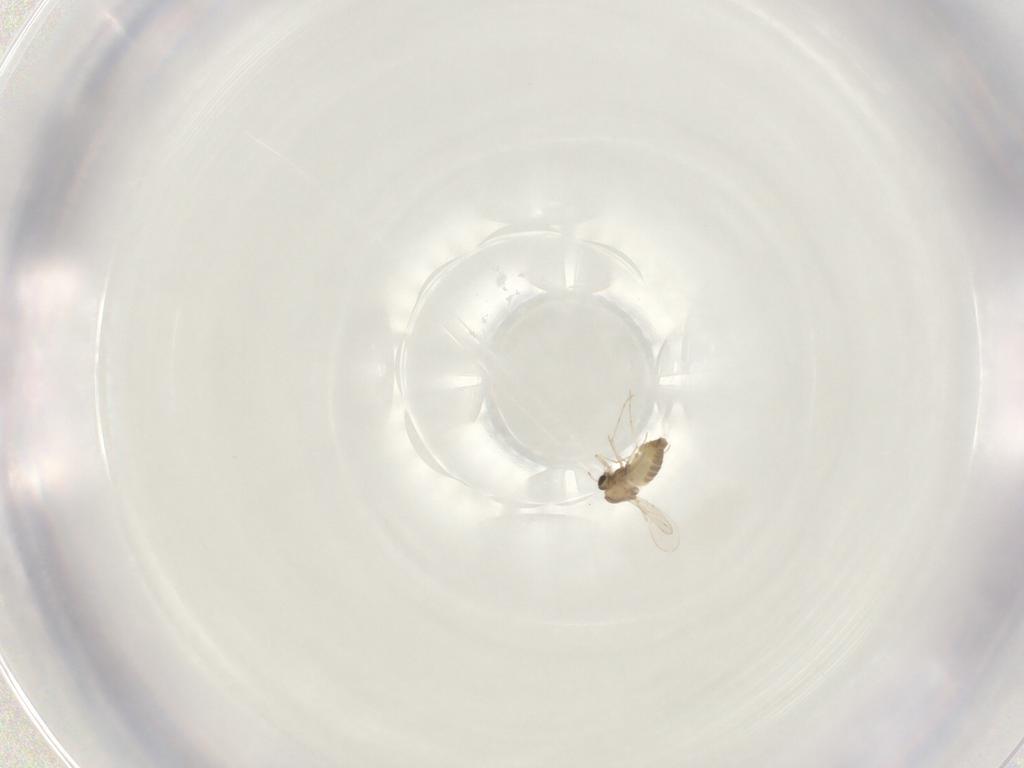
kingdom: Animalia
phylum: Arthropoda
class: Insecta
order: Diptera
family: Chironomidae
